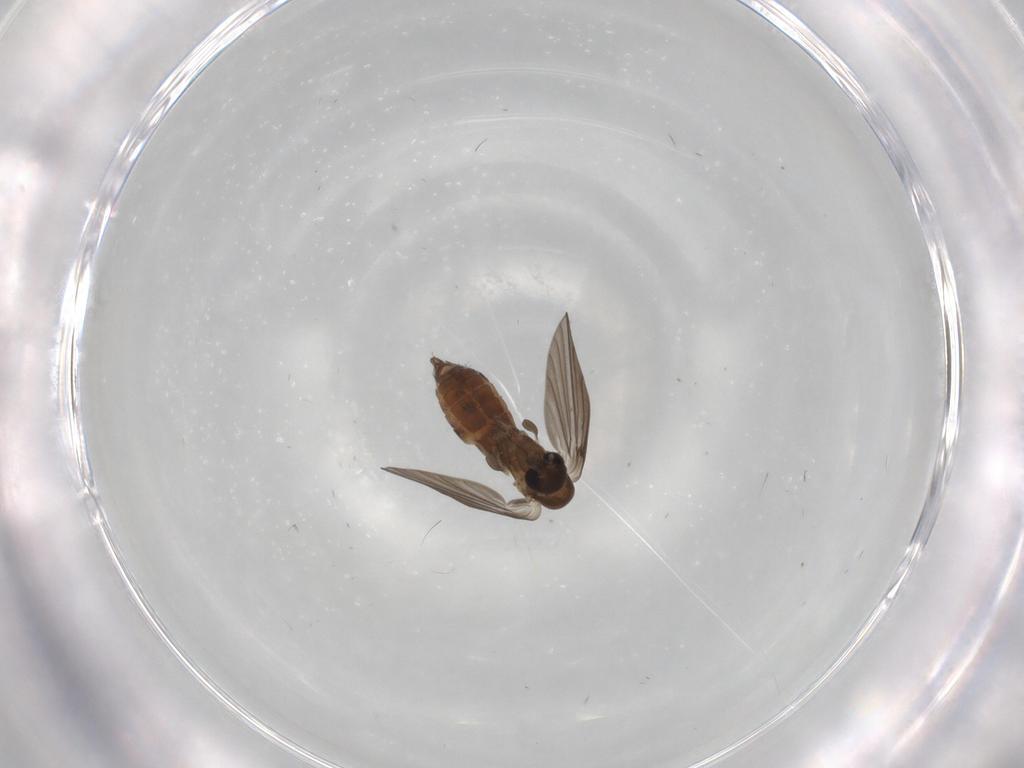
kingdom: Animalia
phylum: Arthropoda
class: Insecta
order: Diptera
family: Psychodidae
